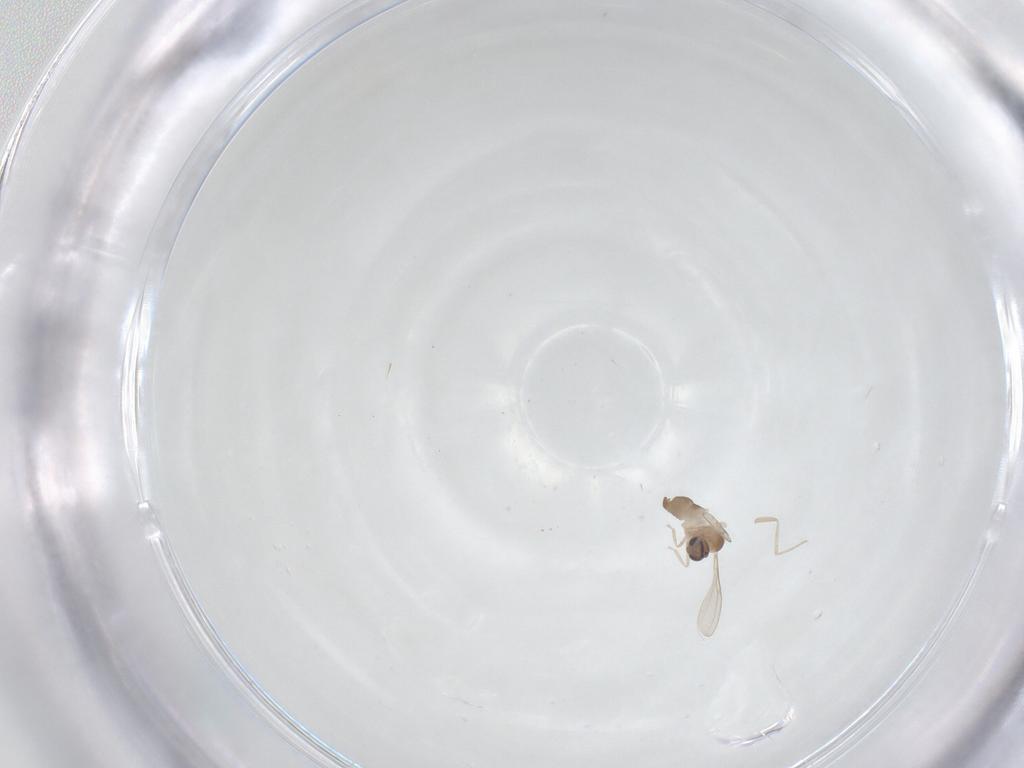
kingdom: Animalia
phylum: Arthropoda
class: Insecta
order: Diptera
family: Cecidomyiidae
